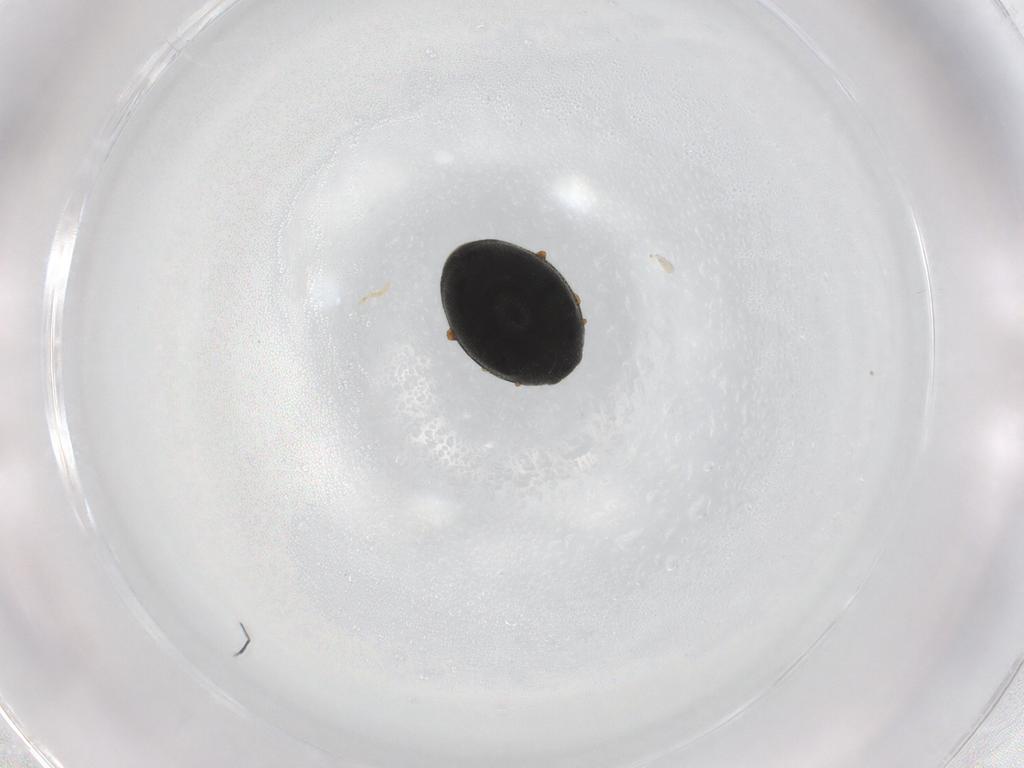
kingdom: Animalia
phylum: Arthropoda
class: Insecta
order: Coleoptera
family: Coccinellidae
